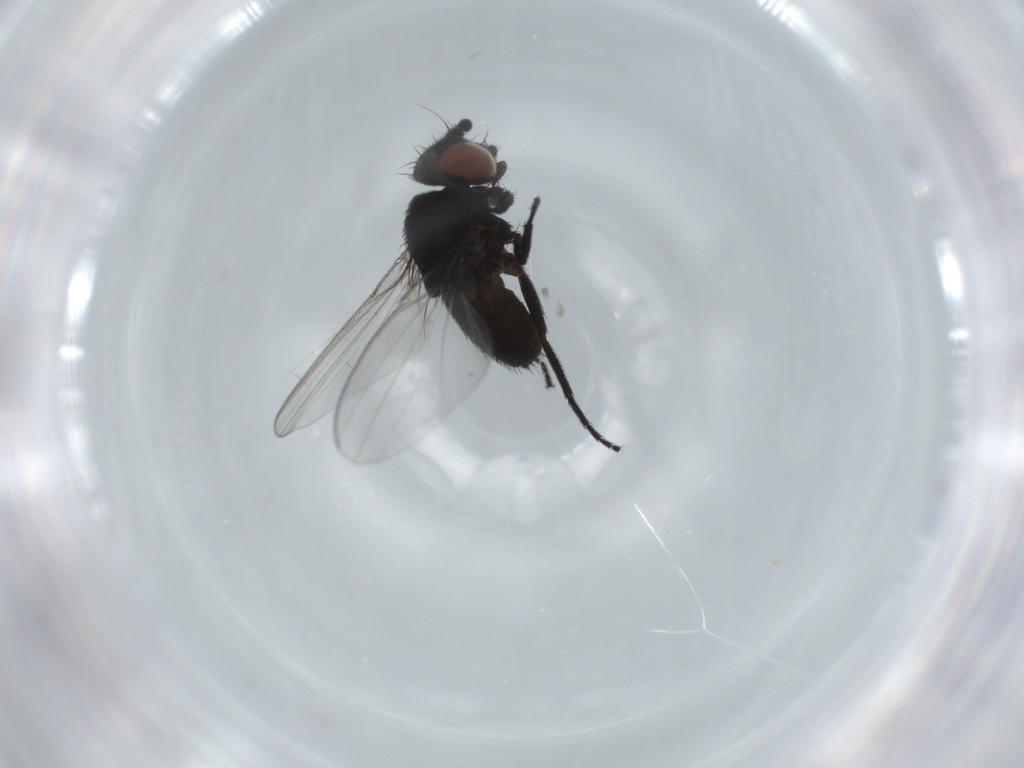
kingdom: Animalia
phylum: Arthropoda
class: Insecta
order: Diptera
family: Milichiidae
